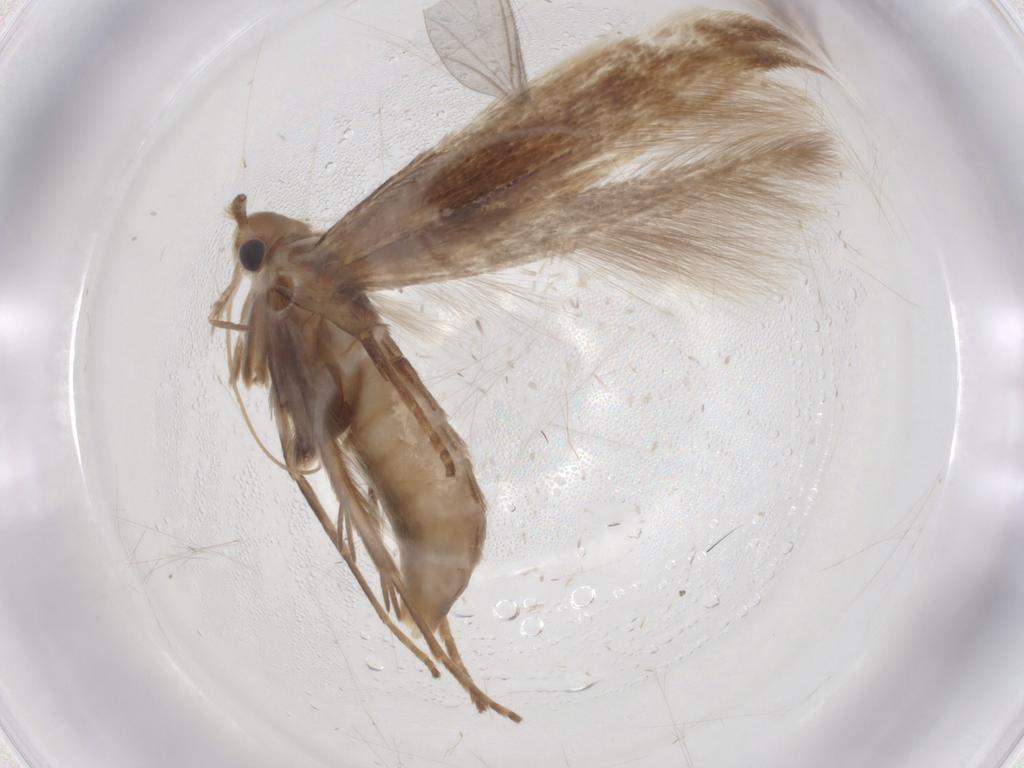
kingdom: Animalia
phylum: Arthropoda
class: Insecta
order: Lepidoptera
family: Coleophoridae
